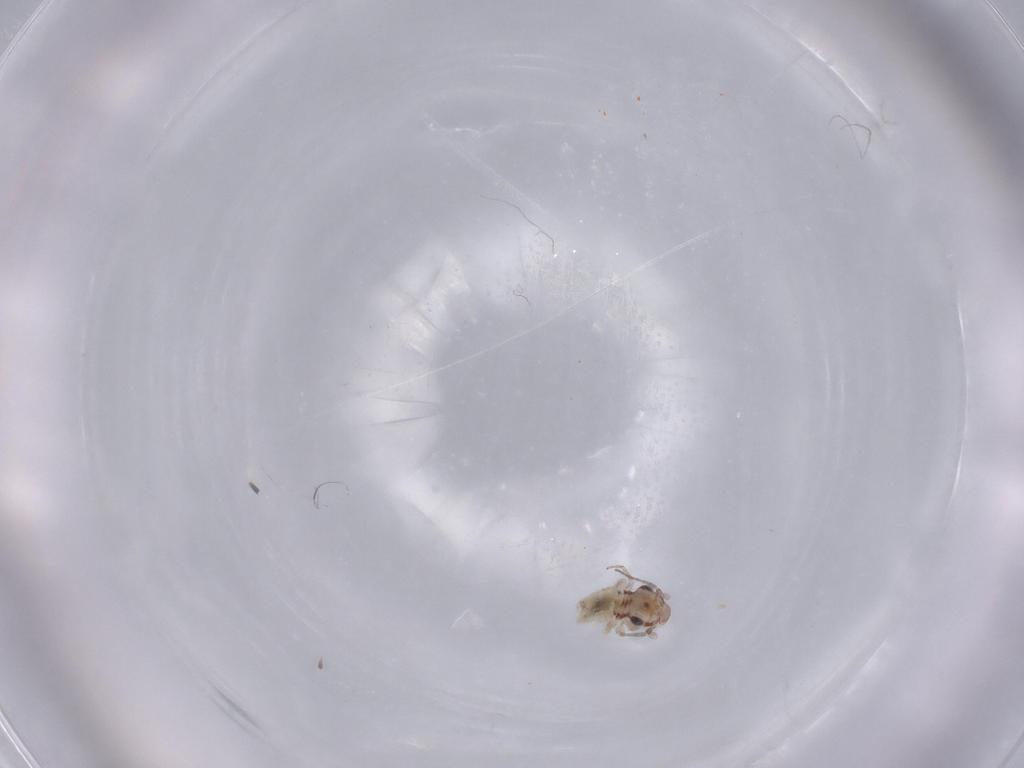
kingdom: Animalia
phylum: Arthropoda
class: Insecta
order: Psocodea
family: Lepidopsocidae
